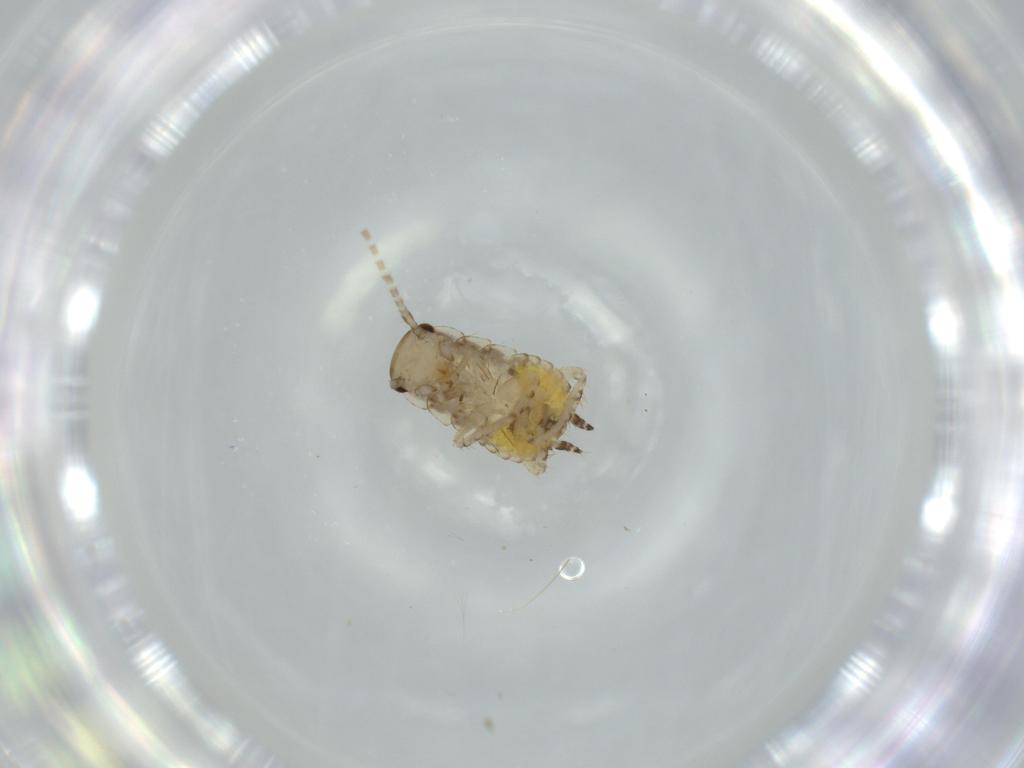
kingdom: Animalia
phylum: Arthropoda
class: Insecta
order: Blattodea
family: Ectobiidae
